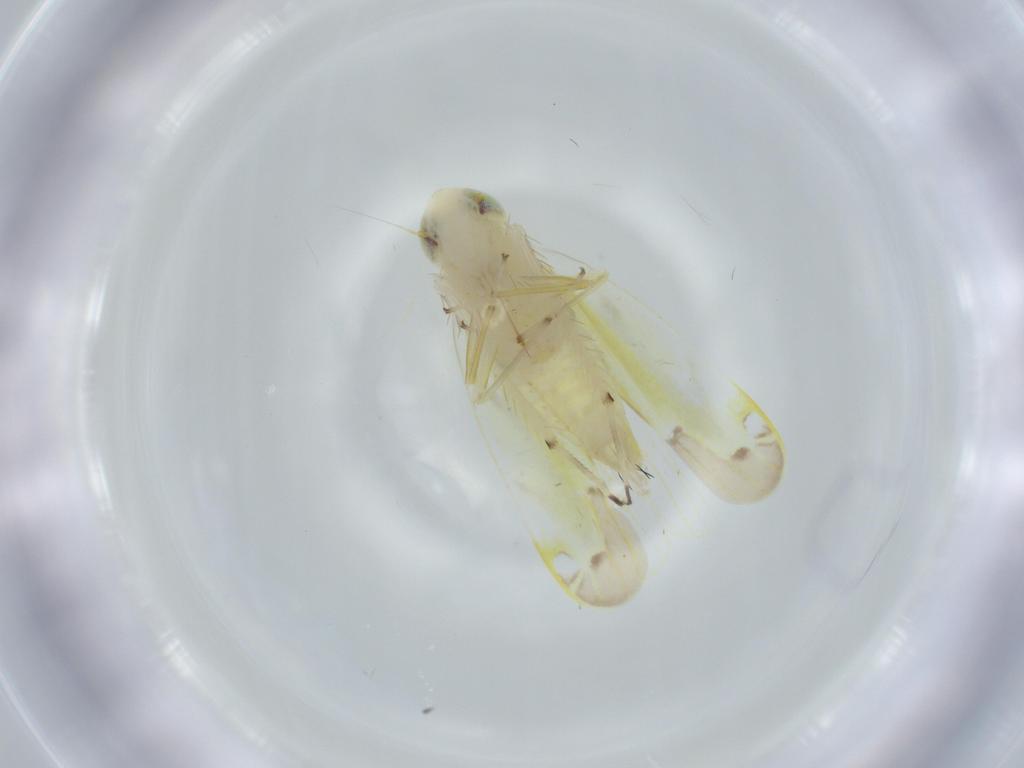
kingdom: Animalia
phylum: Arthropoda
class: Insecta
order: Hemiptera
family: Cicadellidae
